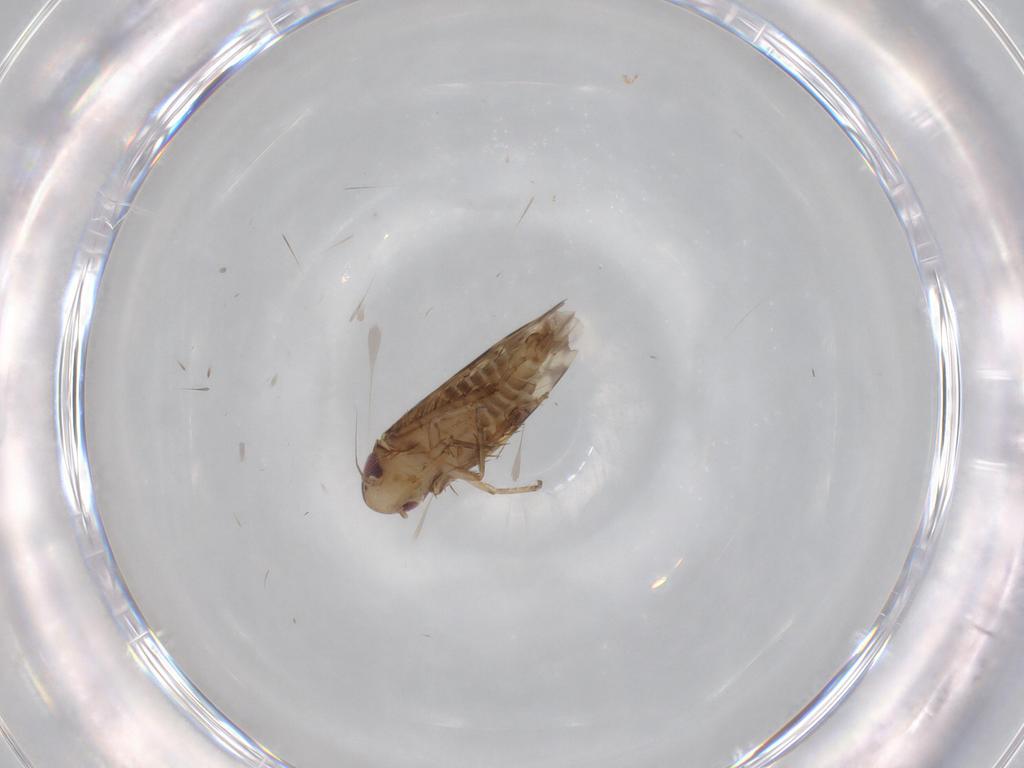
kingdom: Animalia
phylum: Arthropoda
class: Insecta
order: Hemiptera
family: Cicadellidae
